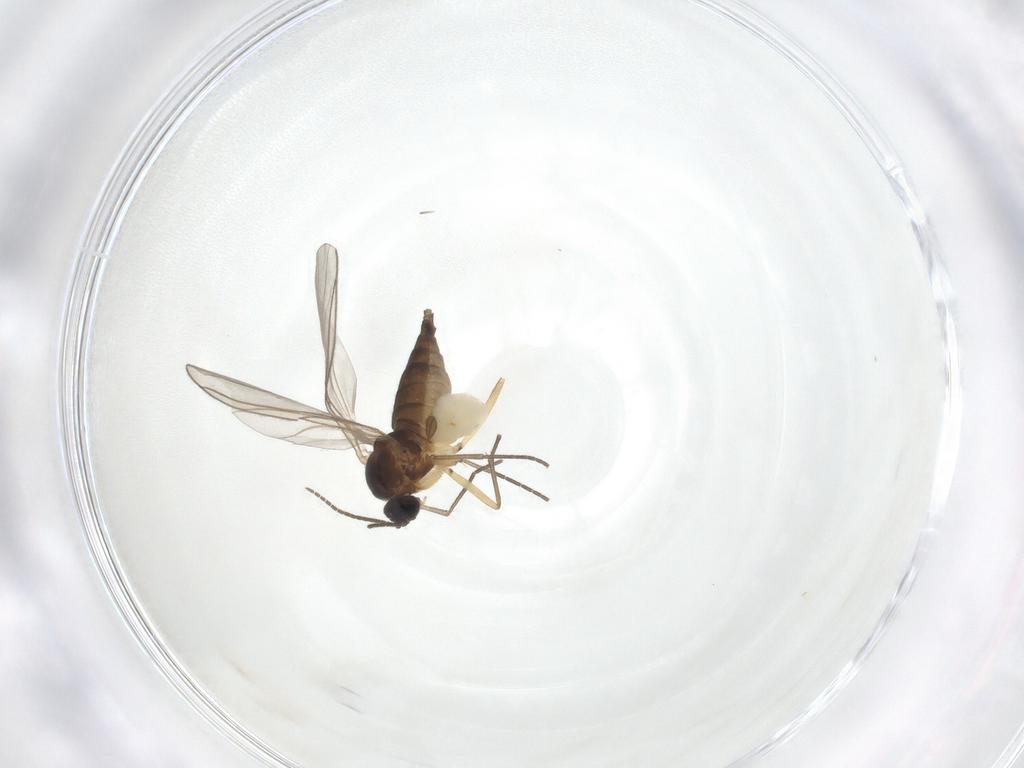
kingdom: Animalia
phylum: Arthropoda
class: Insecta
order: Diptera
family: Sciaridae
